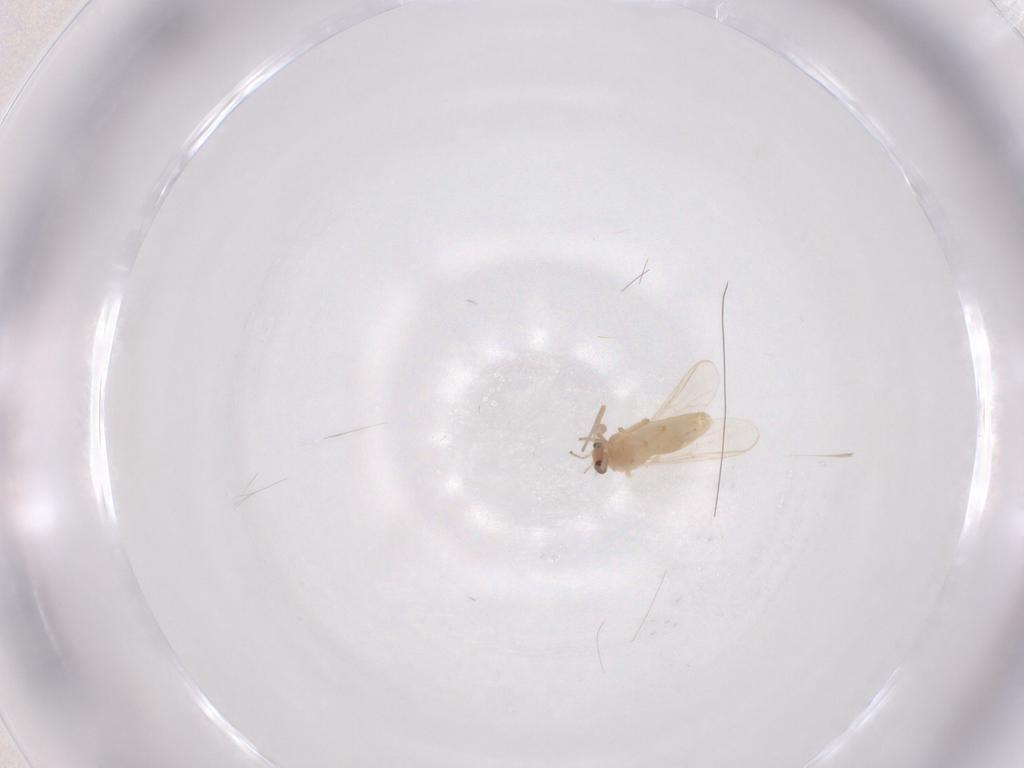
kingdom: Animalia
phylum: Arthropoda
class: Insecta
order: Diptera
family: Chironomidae
